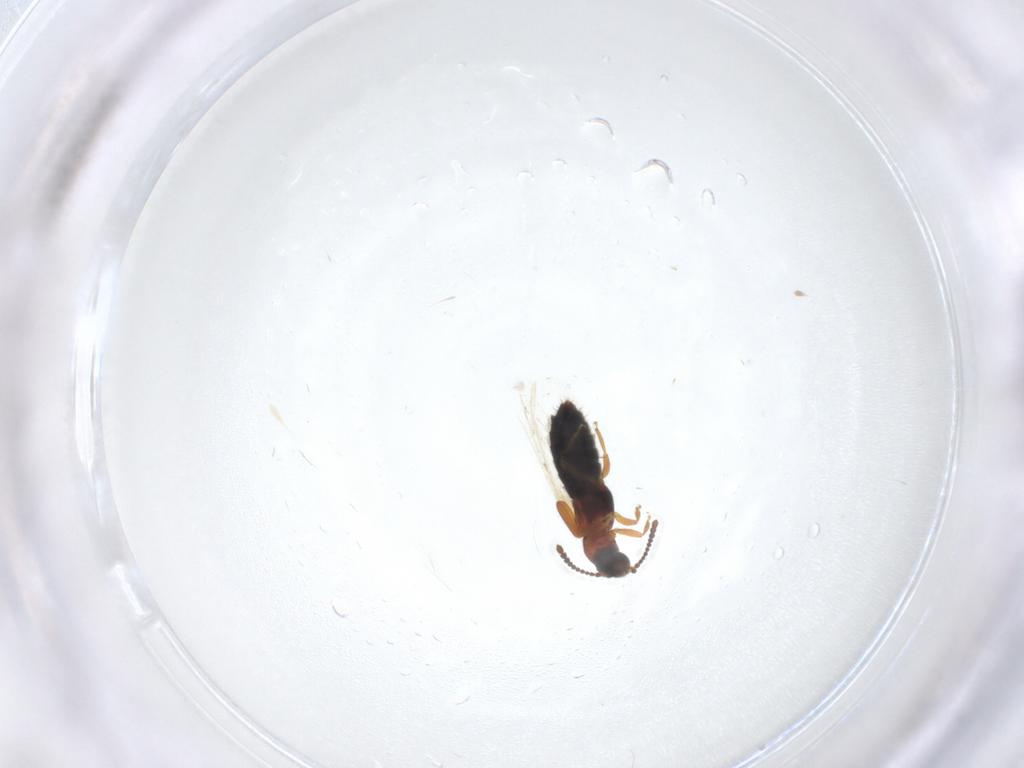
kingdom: Animalia
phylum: Arthropoda
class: Insecta
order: Coleoptera
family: Staphylinidae
